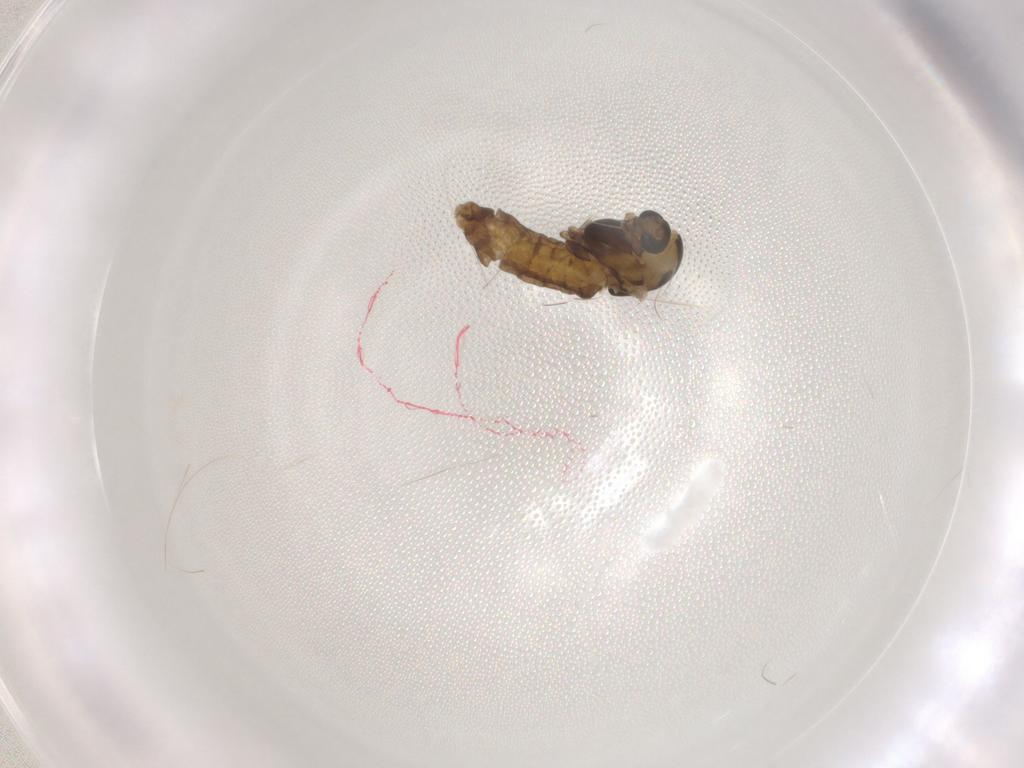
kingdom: Animalia
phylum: Arthropoda
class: Insecta
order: Diptera
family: Chironomidae
